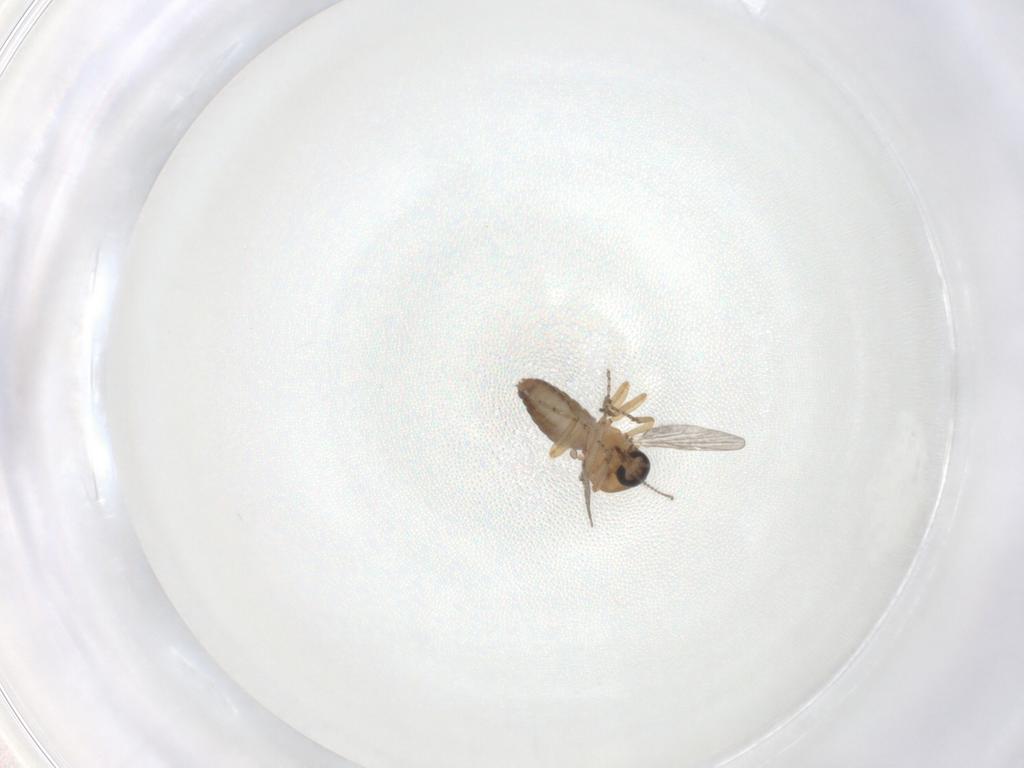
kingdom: Animalia
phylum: Arthropoda
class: Insecta
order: Diptera
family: Ceratopogonidae
